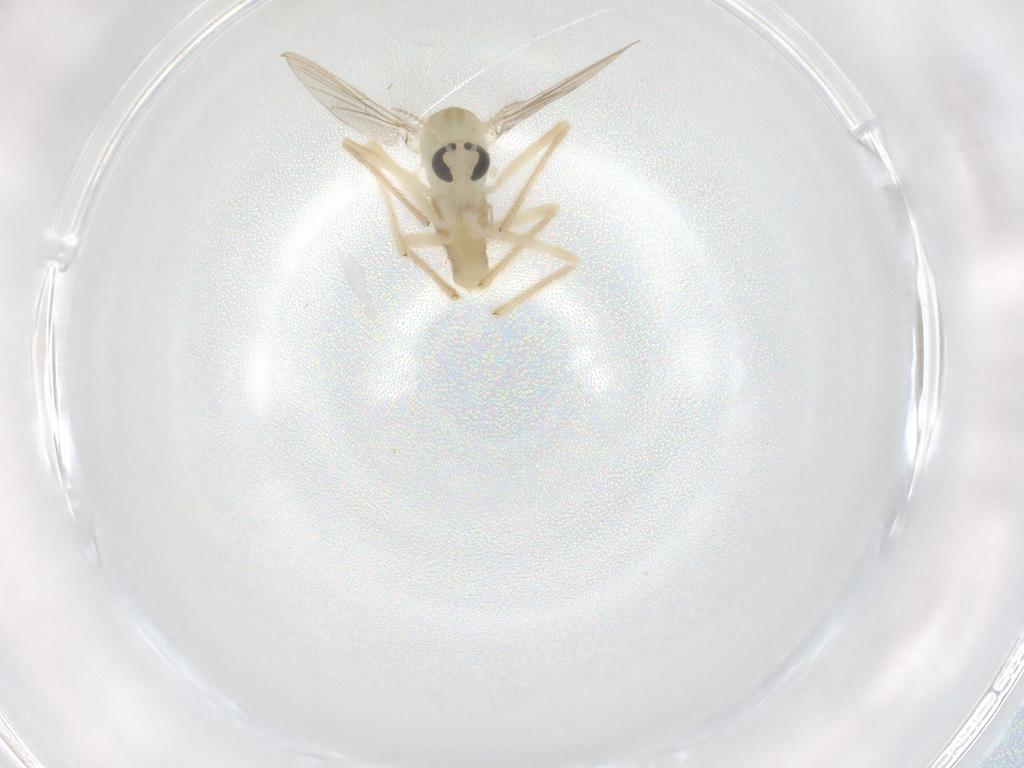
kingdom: Animalia
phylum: Arthropoda
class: Insecta
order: Diptera
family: Chironomidae
